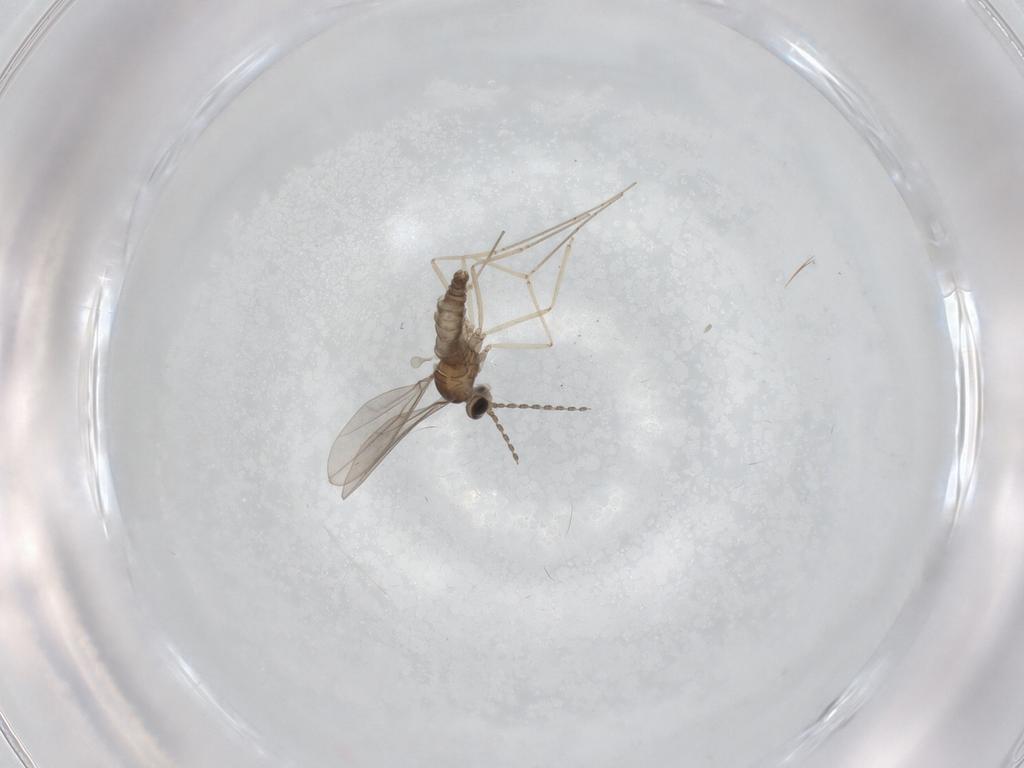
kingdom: Animalia
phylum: Arthropoda
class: Insecta
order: Diptera
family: Cecidomyiidae
